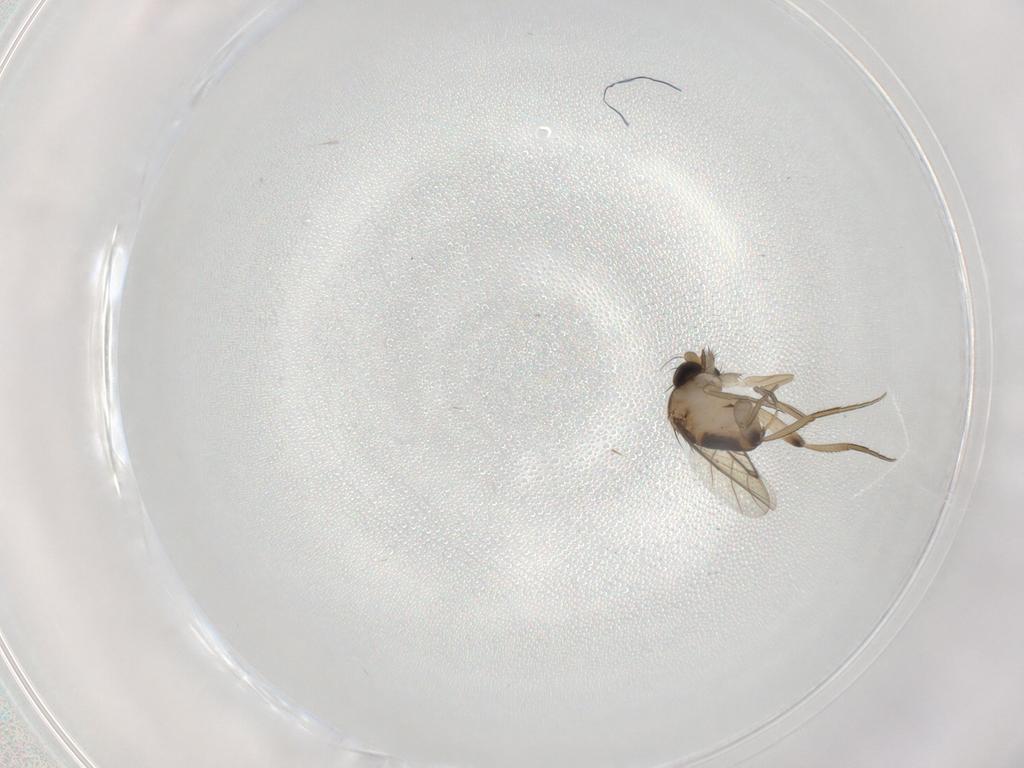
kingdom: Animalia
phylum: Arthropoda
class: Insecta
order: Diptera
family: Phoridae
